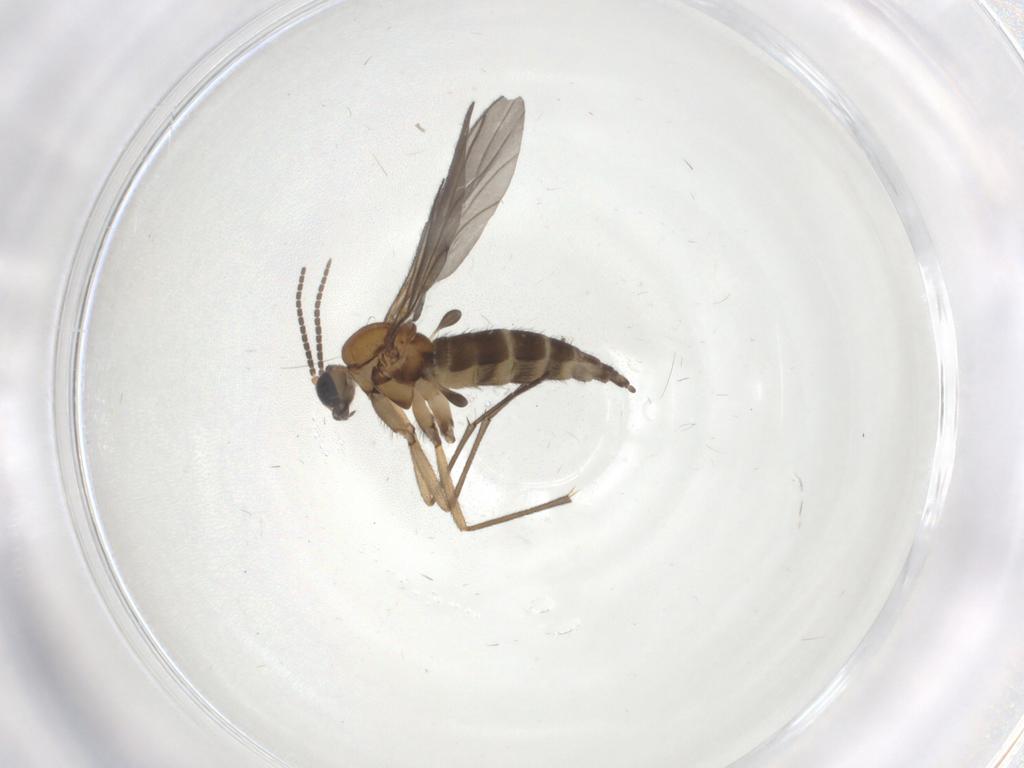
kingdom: Animalia
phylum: Arthropoda
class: Insecta
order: Diptera
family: Sciaridae
